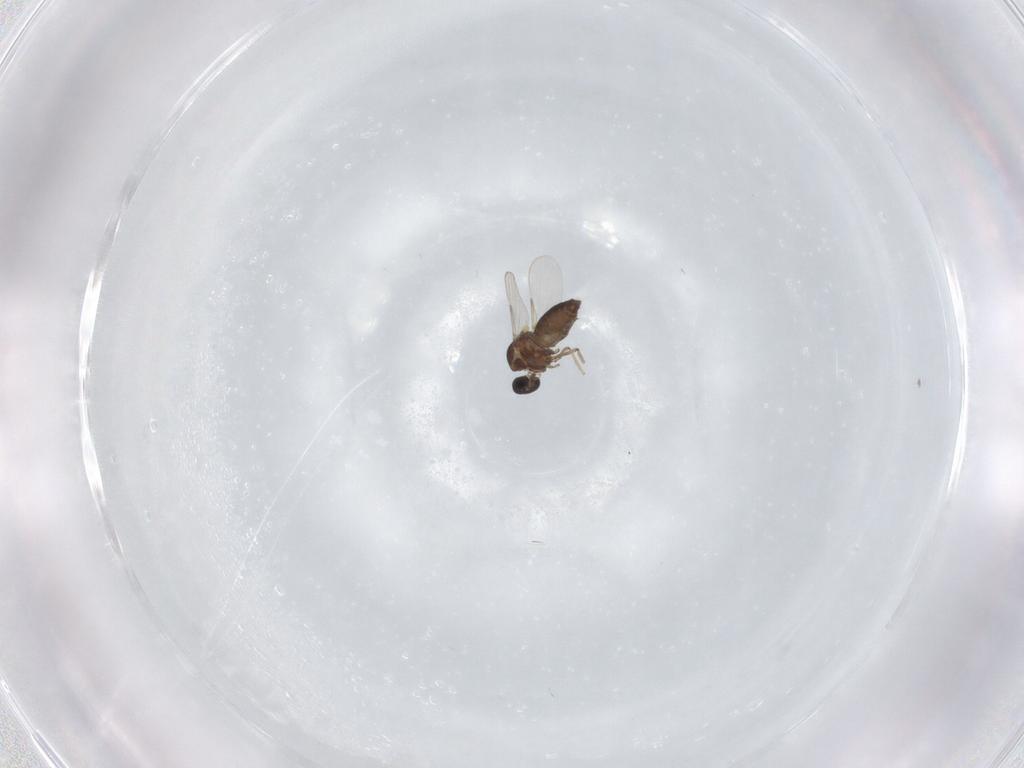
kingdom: Animalia
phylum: Arthropoda
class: Insecta
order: Diptera
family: Ceratopogonidae
